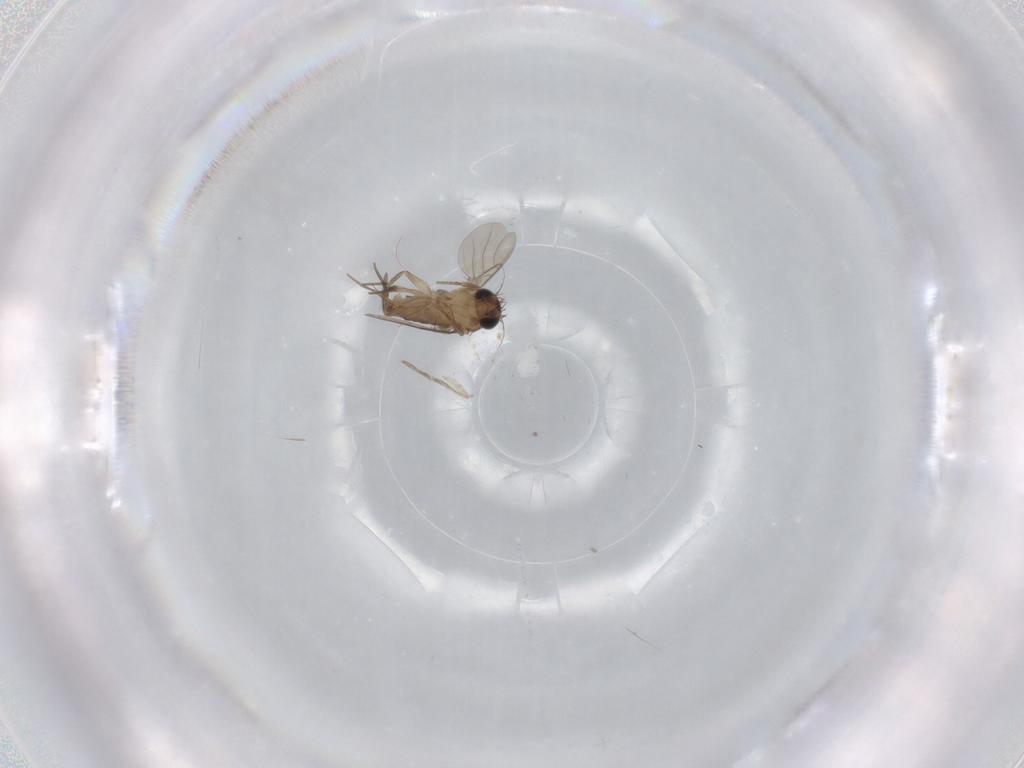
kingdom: Animalia
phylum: Arthropoda
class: Insecta
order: Diptera
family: Phoridae
